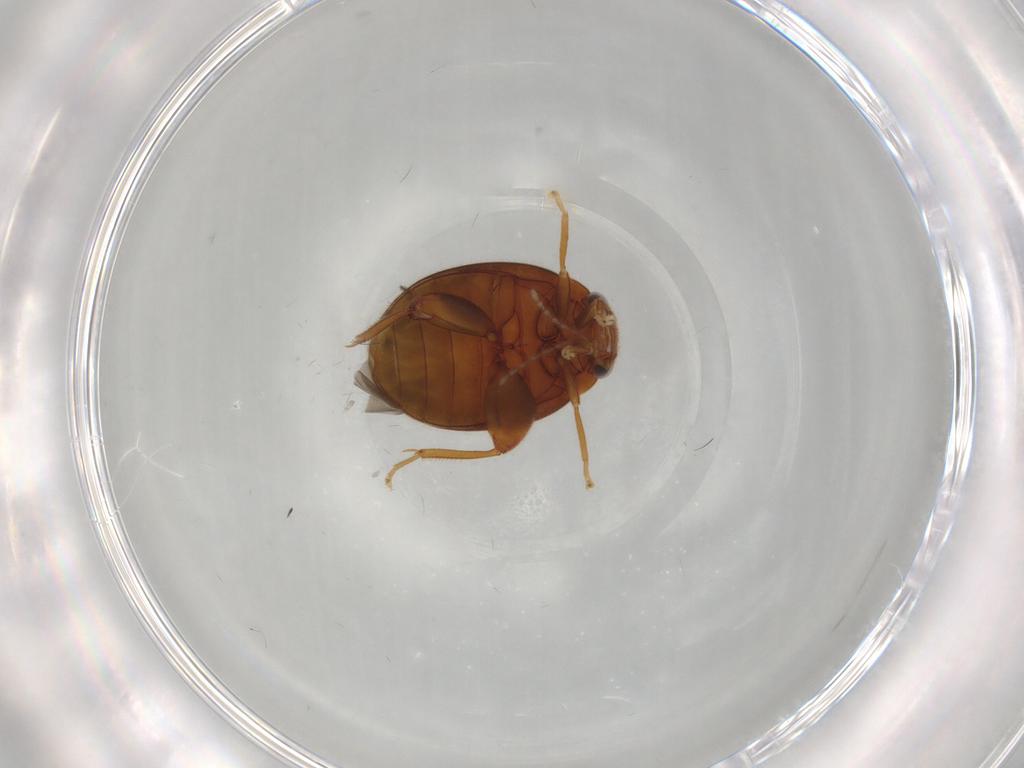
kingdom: Animalia
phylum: Arthropoda
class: Insecta
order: Coleoptera
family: Scirtidae
